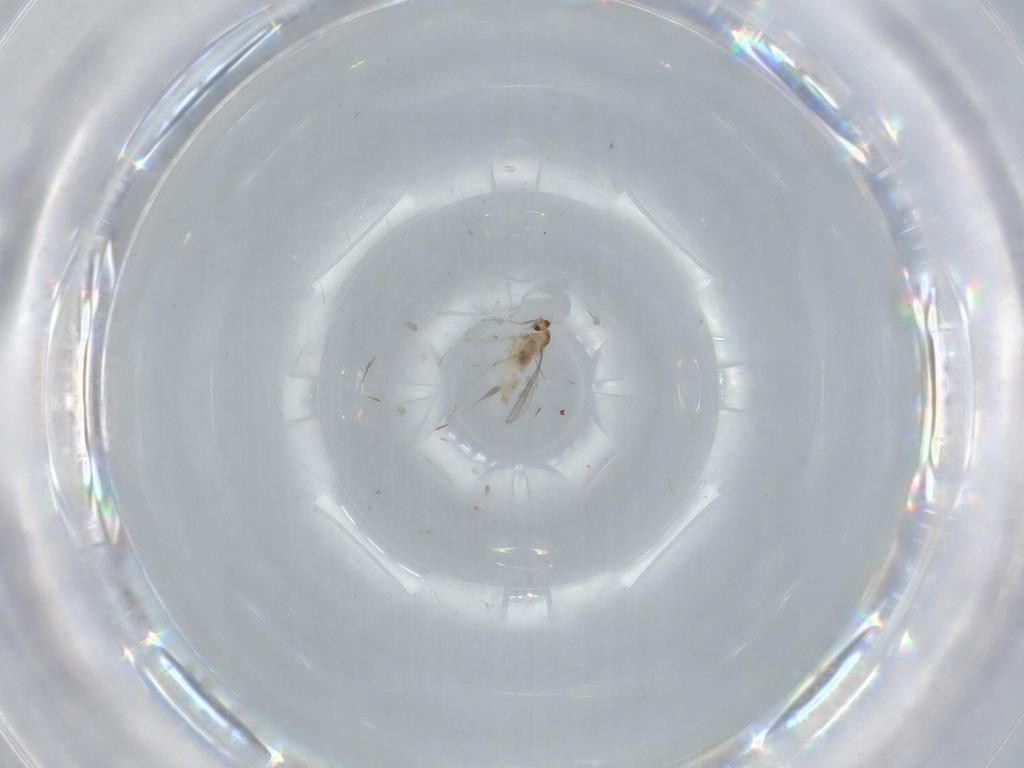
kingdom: Animalia
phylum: Arthropoda
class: Insecta
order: Diptera
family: Cecidomyiidae
